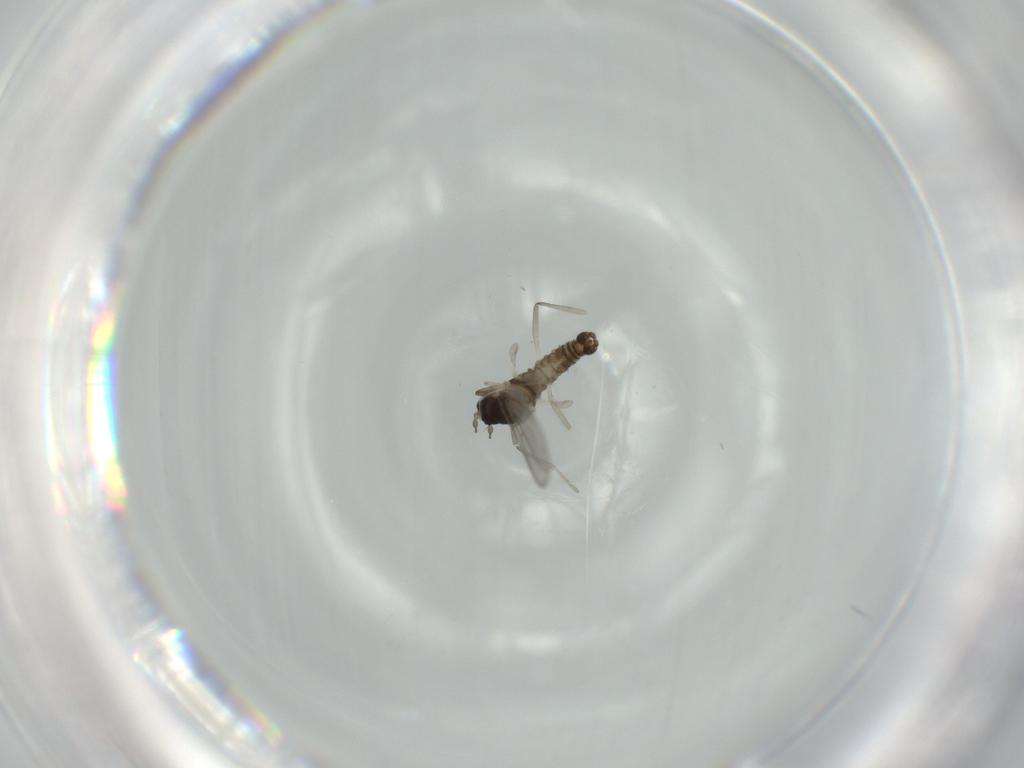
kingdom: Animalia
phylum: Arthropoda
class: Insecta
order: Diptera
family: Cecidomyiidae
